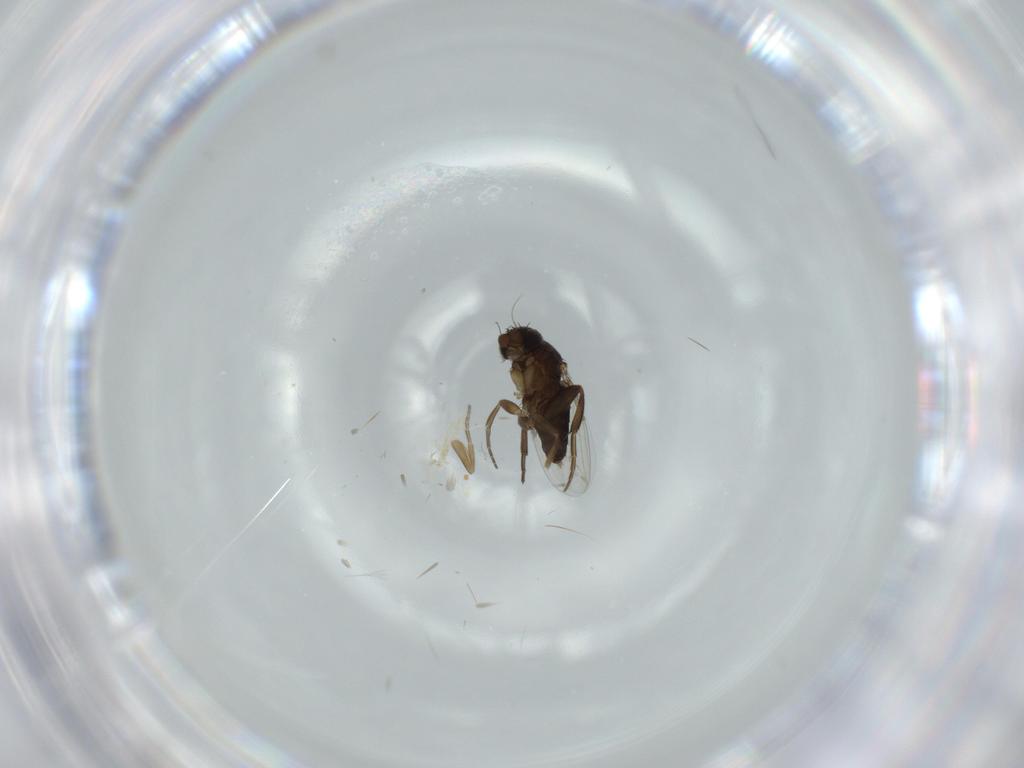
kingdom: Animalia
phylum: Arthropoda
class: Insecta
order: Diptera
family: Phoridae
